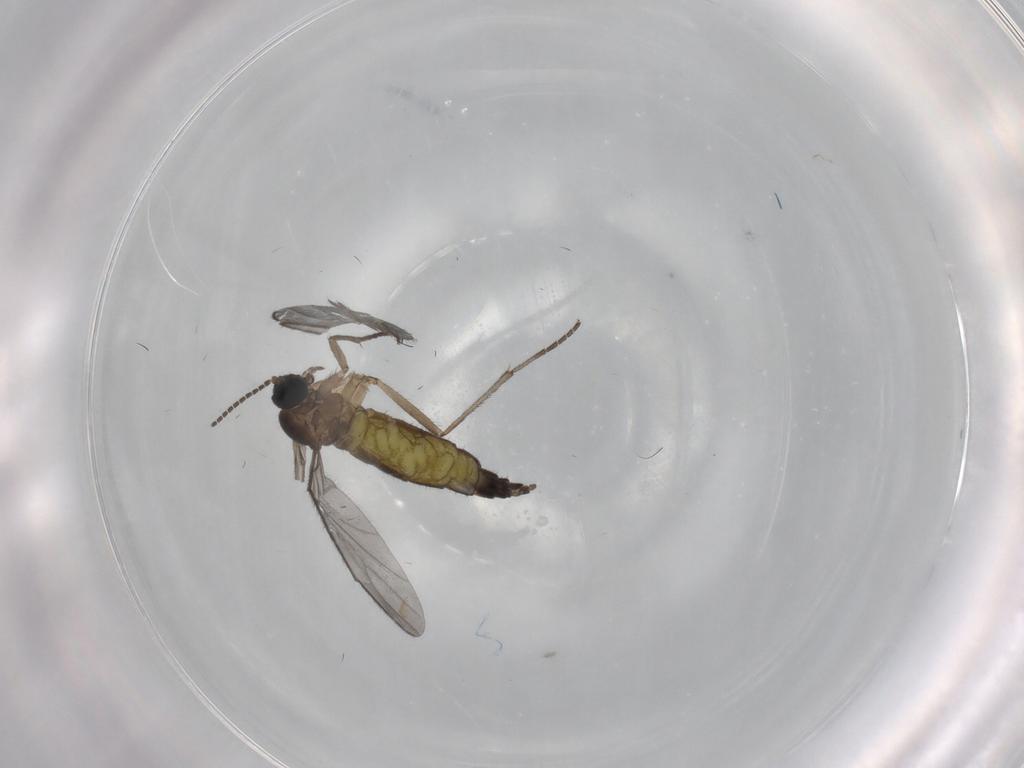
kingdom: Animalia
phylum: Arthropoda
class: Insecta
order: Diptera
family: Sciaridae
